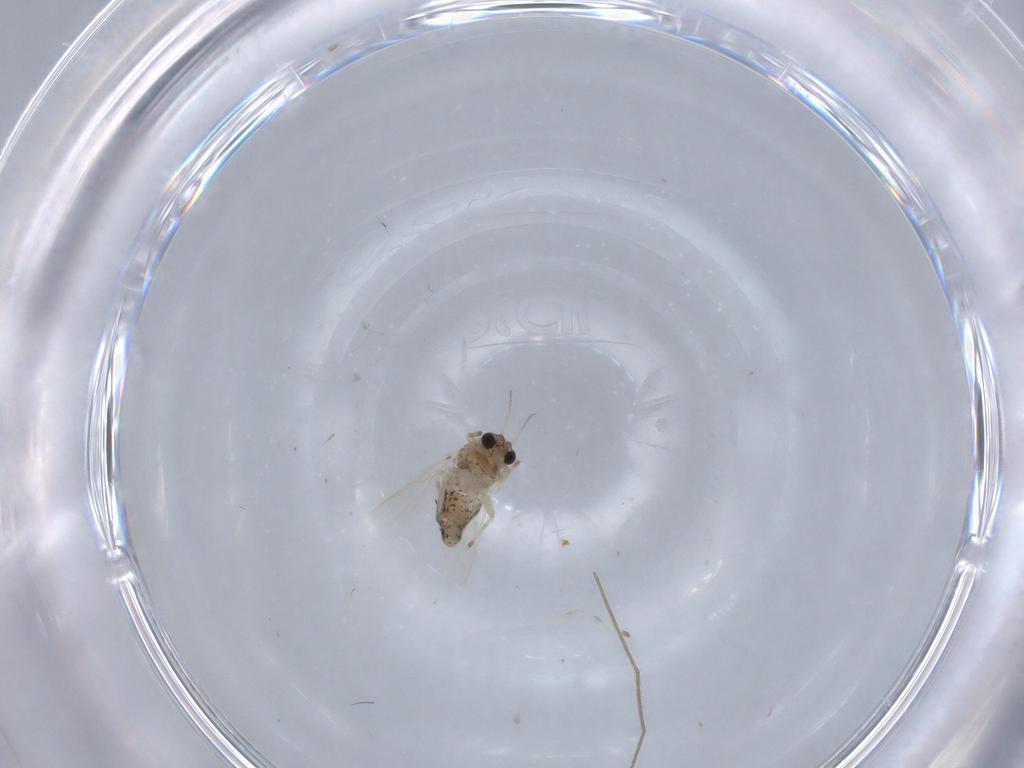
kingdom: Animalia
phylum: Arthropoda
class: Insecta
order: Diptera
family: Chironomidae
